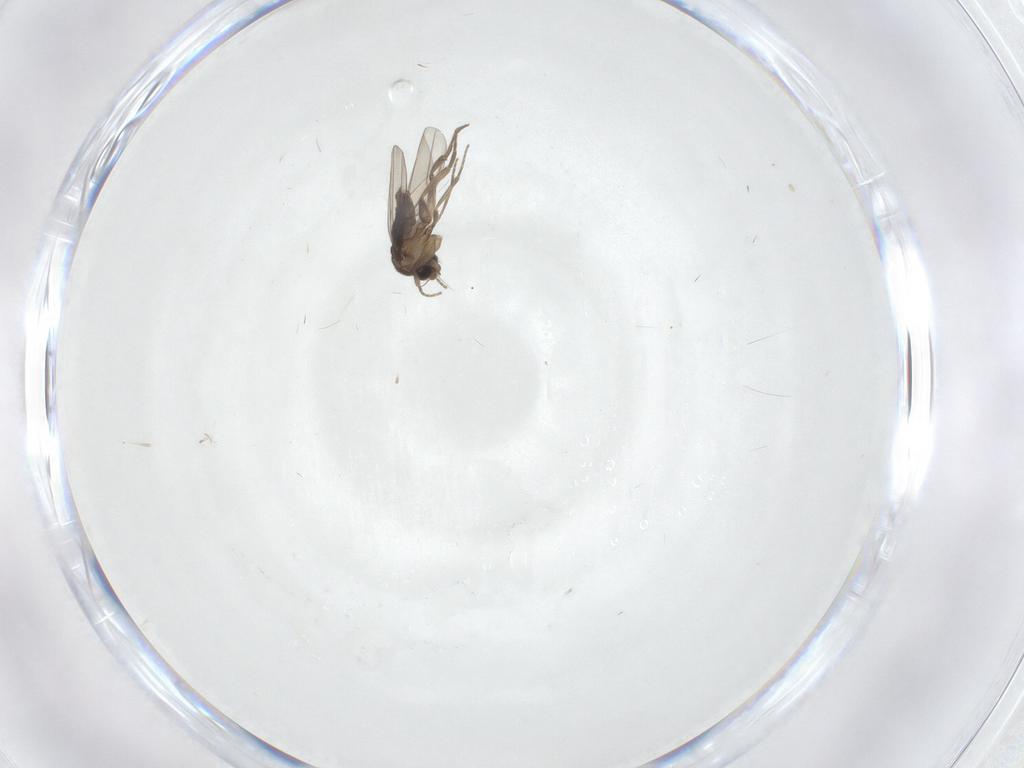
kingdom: Animalia
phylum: Arthropoda
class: Insecta
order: Diptera
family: Phoridae
